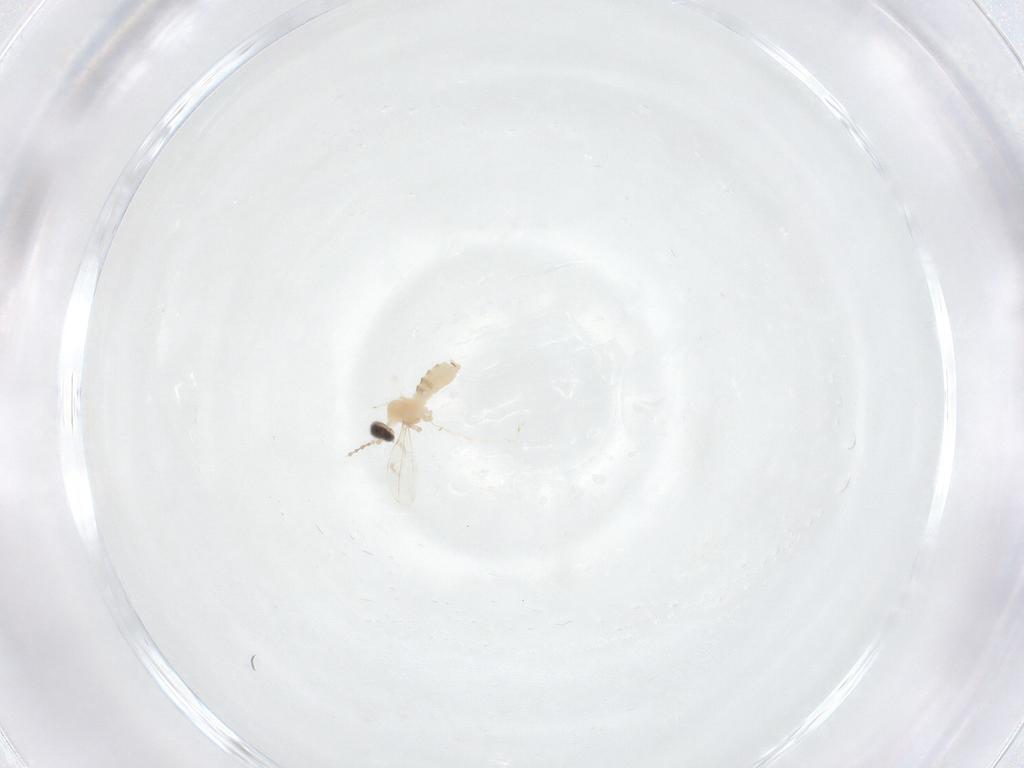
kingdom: Animalia
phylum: Arthropoda
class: Insecta
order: Diptera
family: Cecidomyiidae
